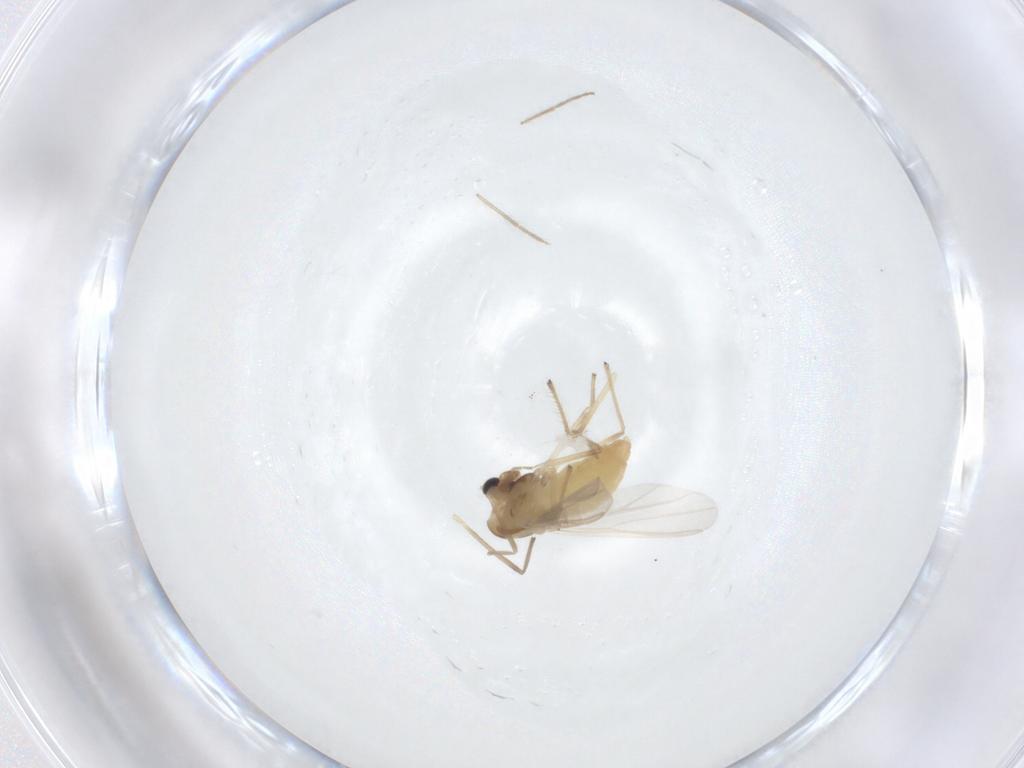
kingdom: Animalia
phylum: Arthropoda
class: Insecta
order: Diptera
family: Chironomidae
